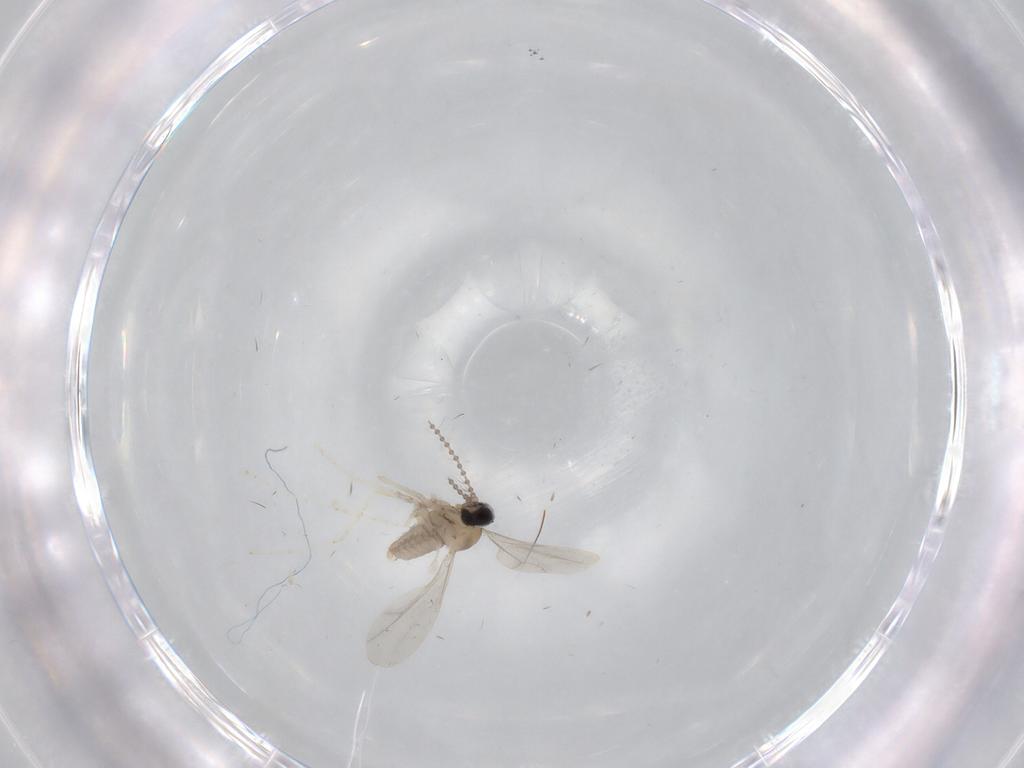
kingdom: Animalia
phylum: Arthropoda
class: Insecta
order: Diptera
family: Chironomidae
